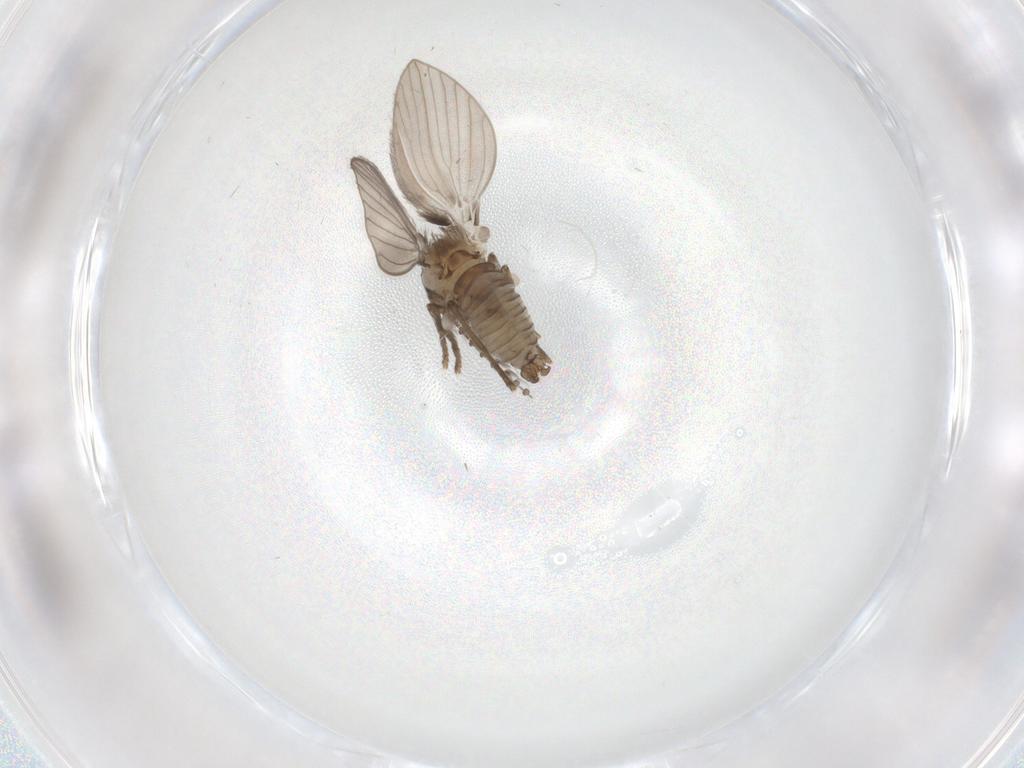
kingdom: Animalia
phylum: Arthropoda
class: Insecta
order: Diptera
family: Psychodidae
